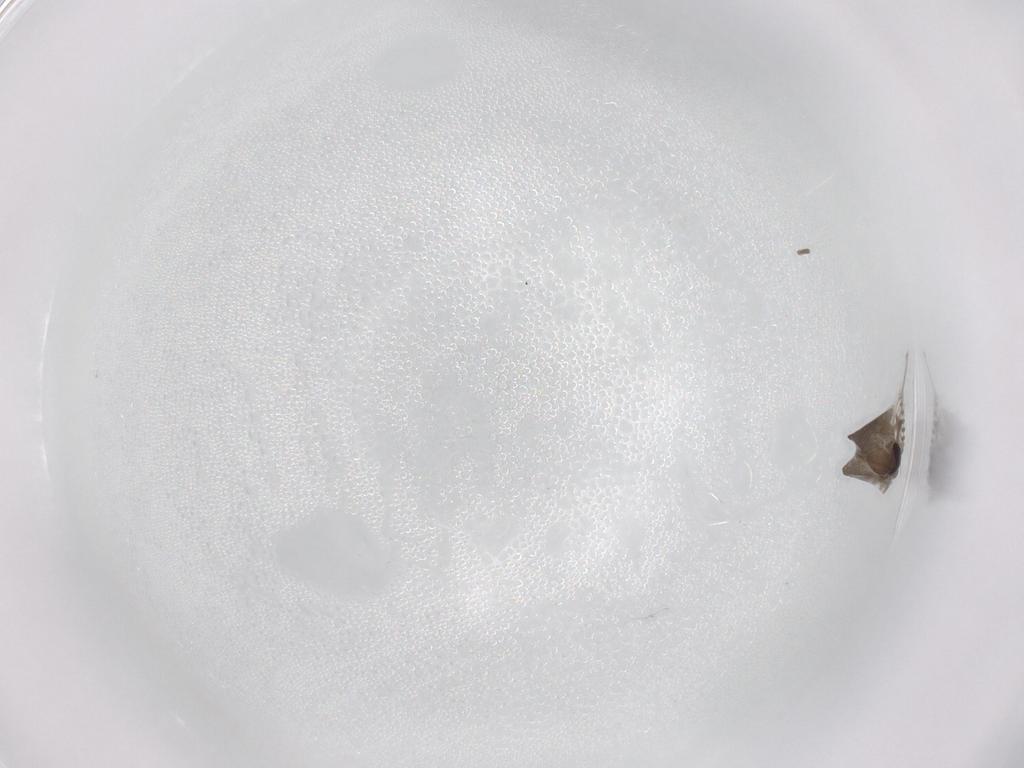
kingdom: Animalia
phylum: Arthropoda
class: Insecta
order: Diptera
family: Psychodidae
